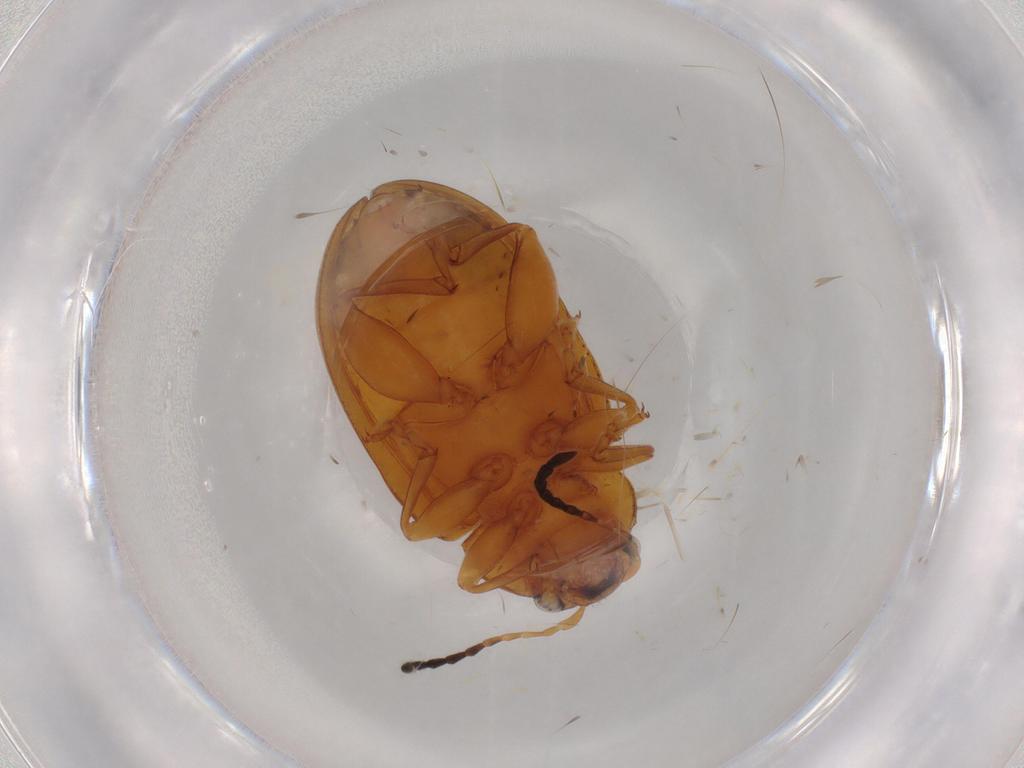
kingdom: Animalia
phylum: Arthropoda
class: Insecta
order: Coleoptera
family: Chrysomelidae
